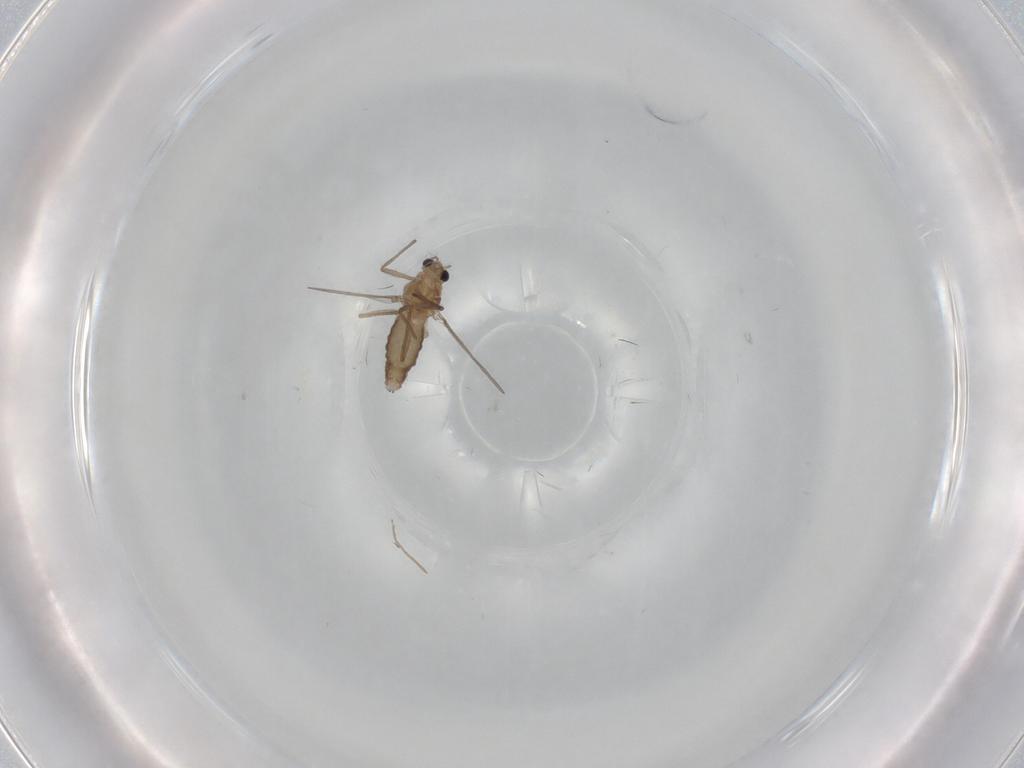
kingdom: Animalia
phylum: Arthropoda
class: Insecta
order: Diptera
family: Chironomidae
